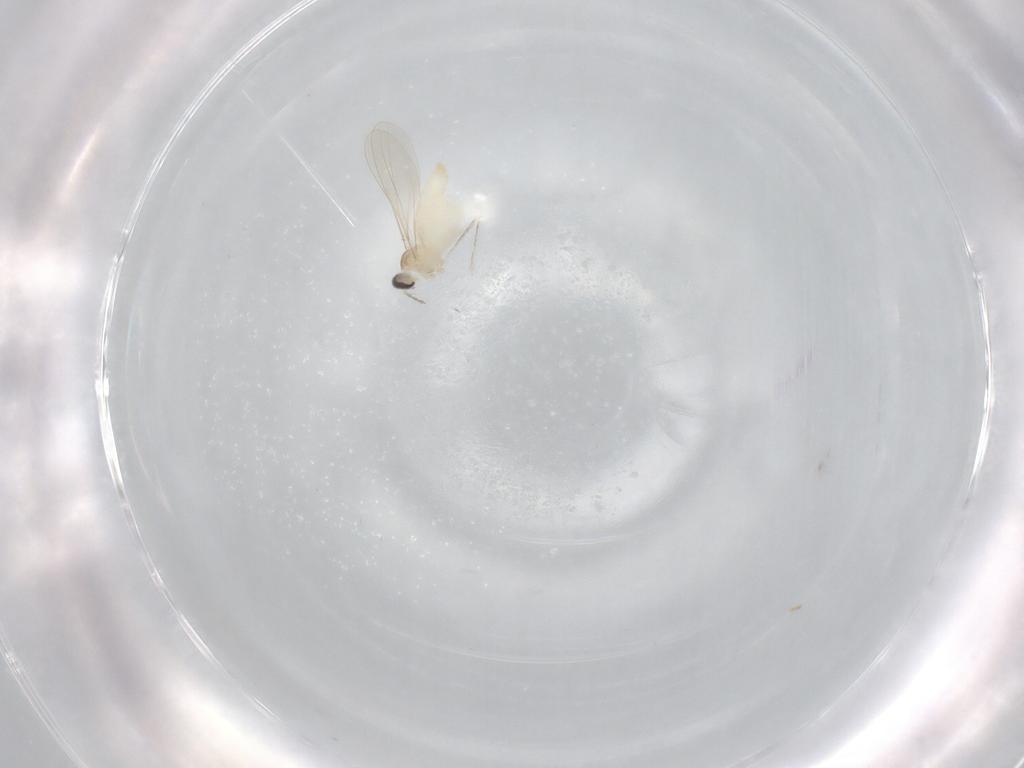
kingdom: Animalia
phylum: Arthropoda
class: Insecta
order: Diptera
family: Cecidomyiidae
